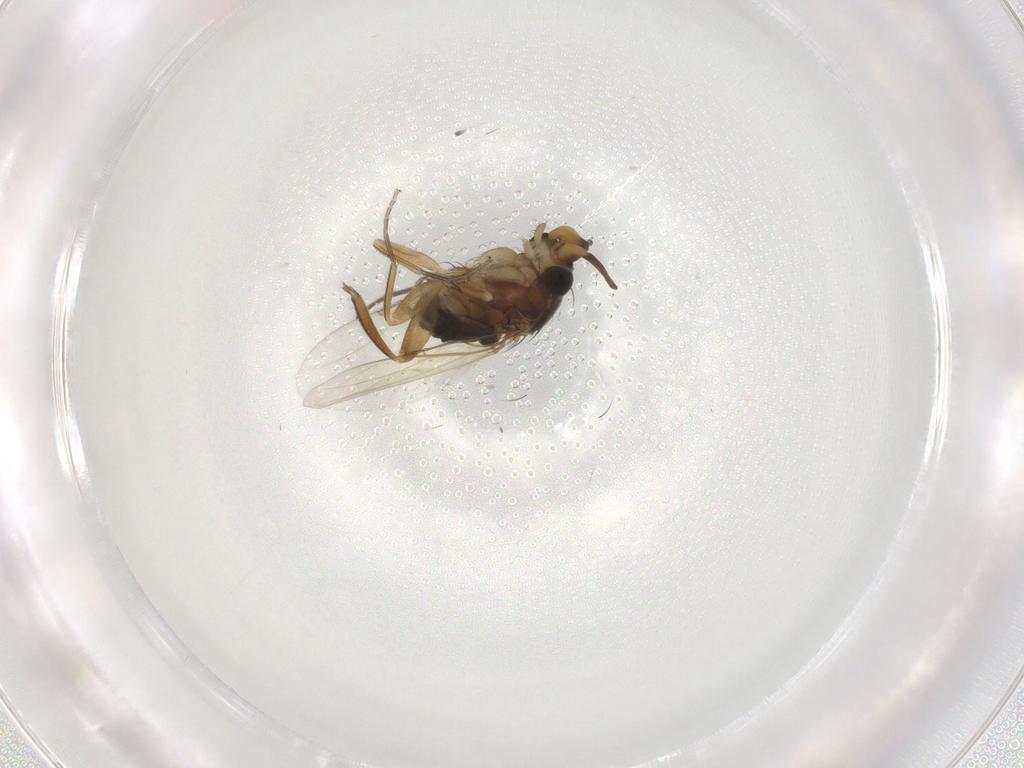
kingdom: Animalia
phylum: Arthropoda
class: Insecta
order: Diptera
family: Phoridae
